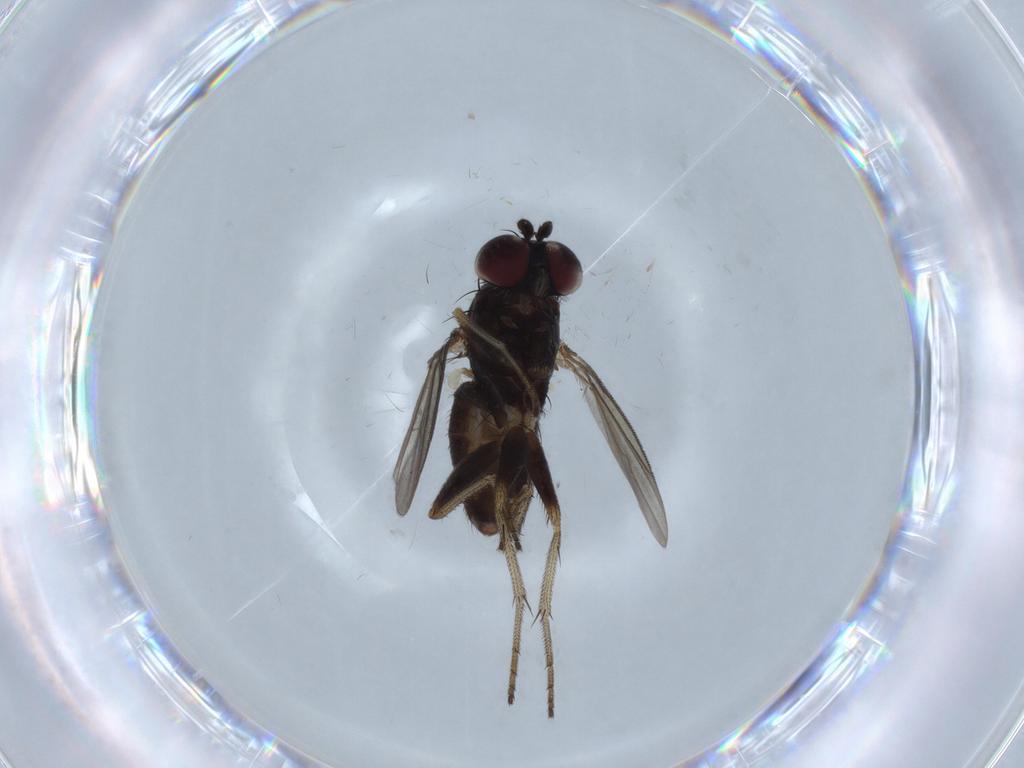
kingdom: Animalia
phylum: Arthropoda
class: Insecta
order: Diptera
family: Dolichopodidae
